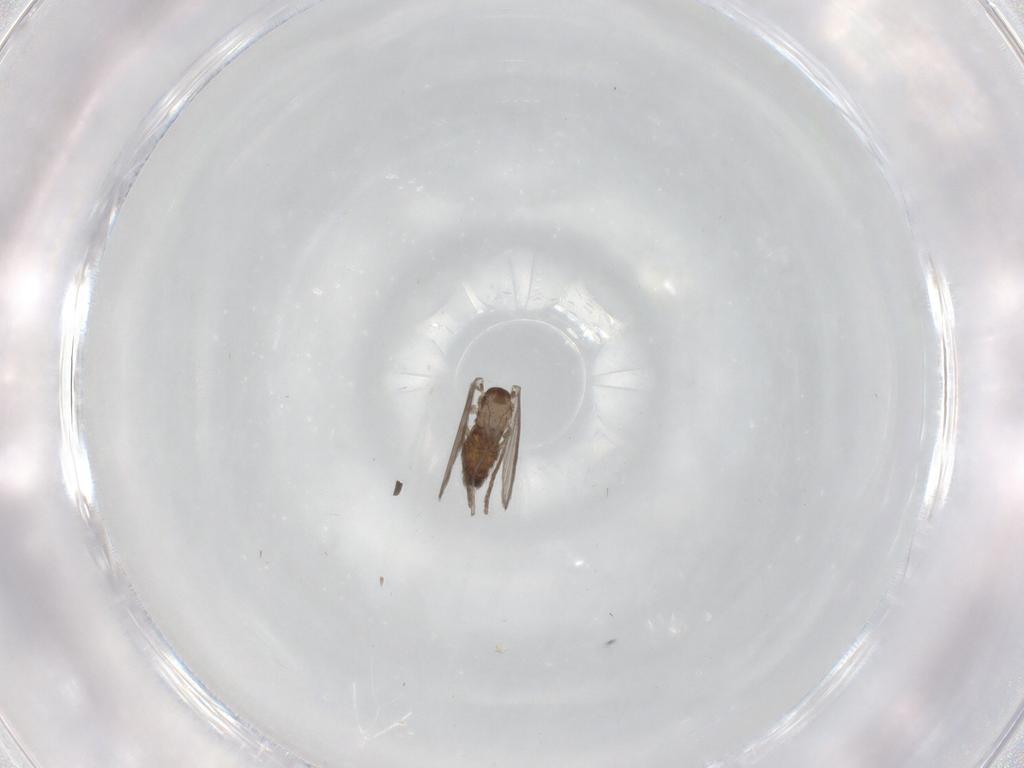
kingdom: Animalia
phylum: Arthropoda
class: Insecta
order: Diptera
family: Psychodidae
